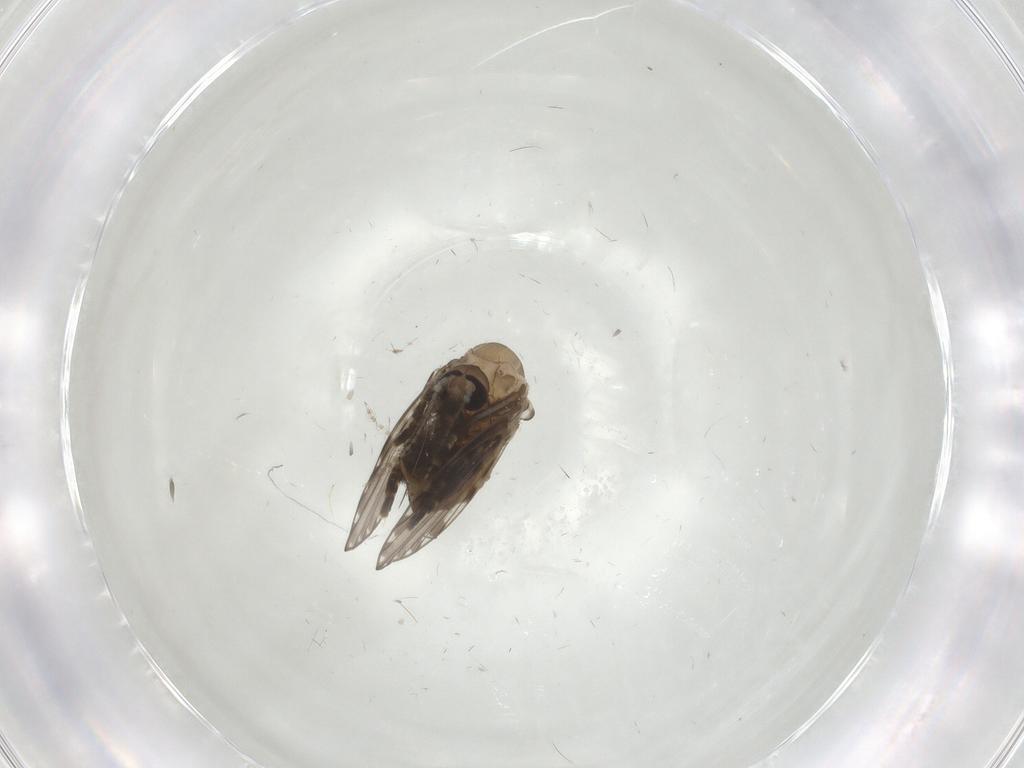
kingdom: Animalia
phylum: Arthropoda
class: Insecta
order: Diptera
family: Psychodidae
